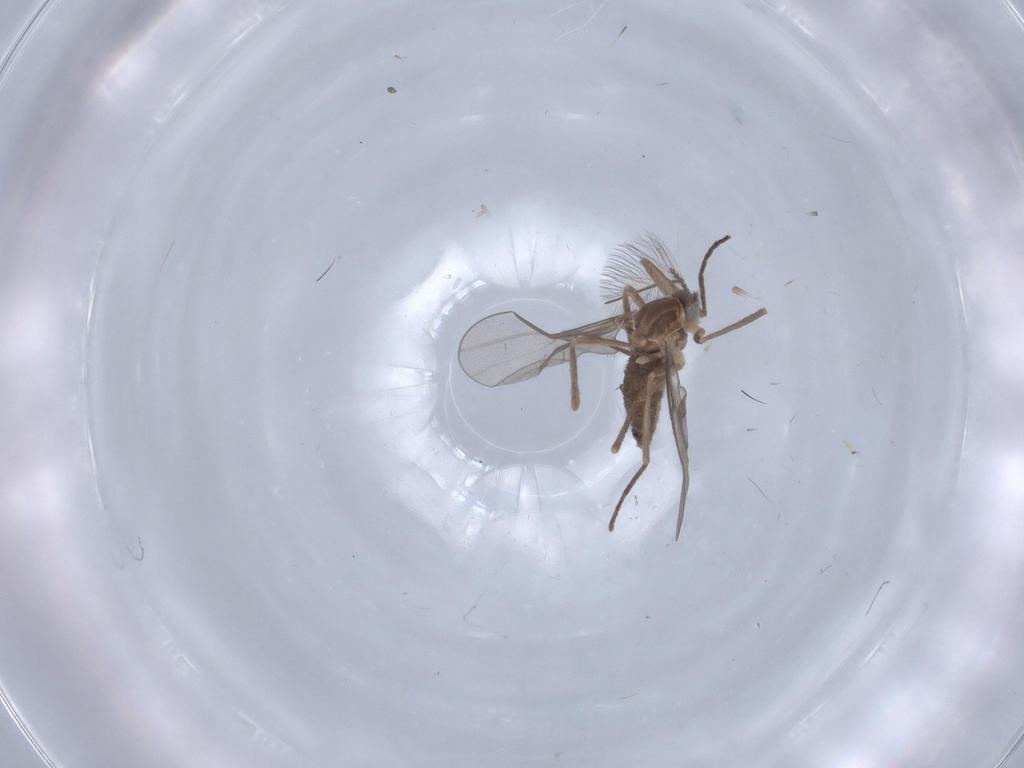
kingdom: Animalia
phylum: Arthropoda
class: Insecta
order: Diptera
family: Cecidomyiidae
